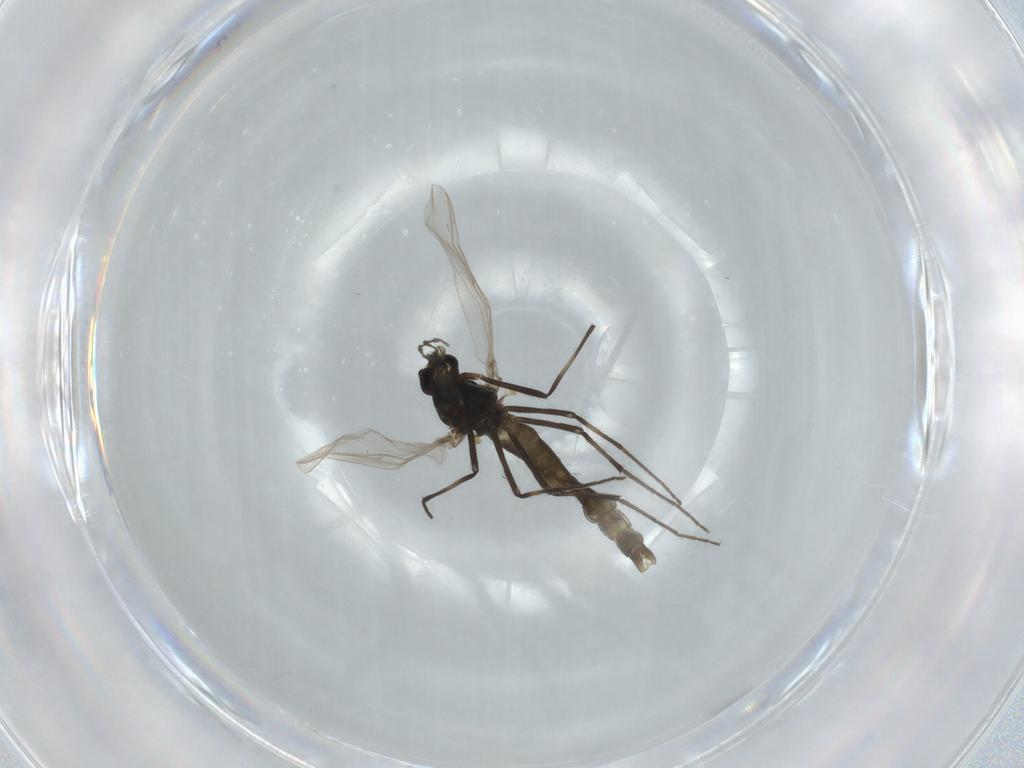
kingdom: Animalia
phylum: Arthropoda
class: Insecta
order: Diptera
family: Chironomidae
